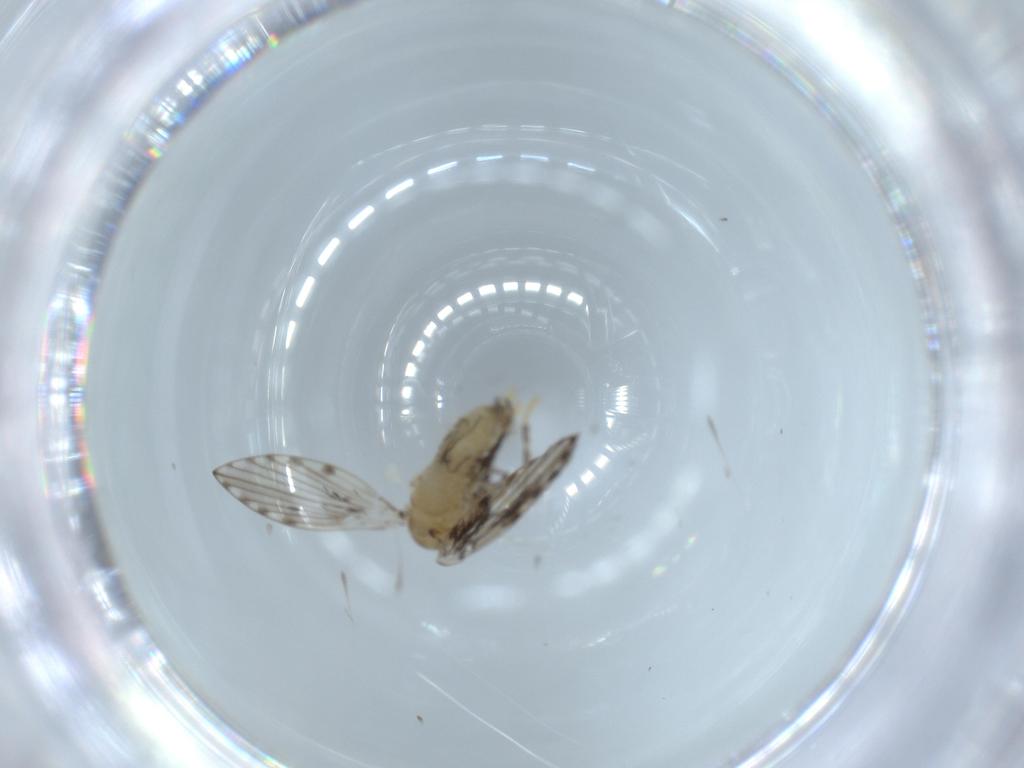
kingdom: Animalia
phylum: Arthropoda
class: Insecta
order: Diptera
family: Psychodidae
